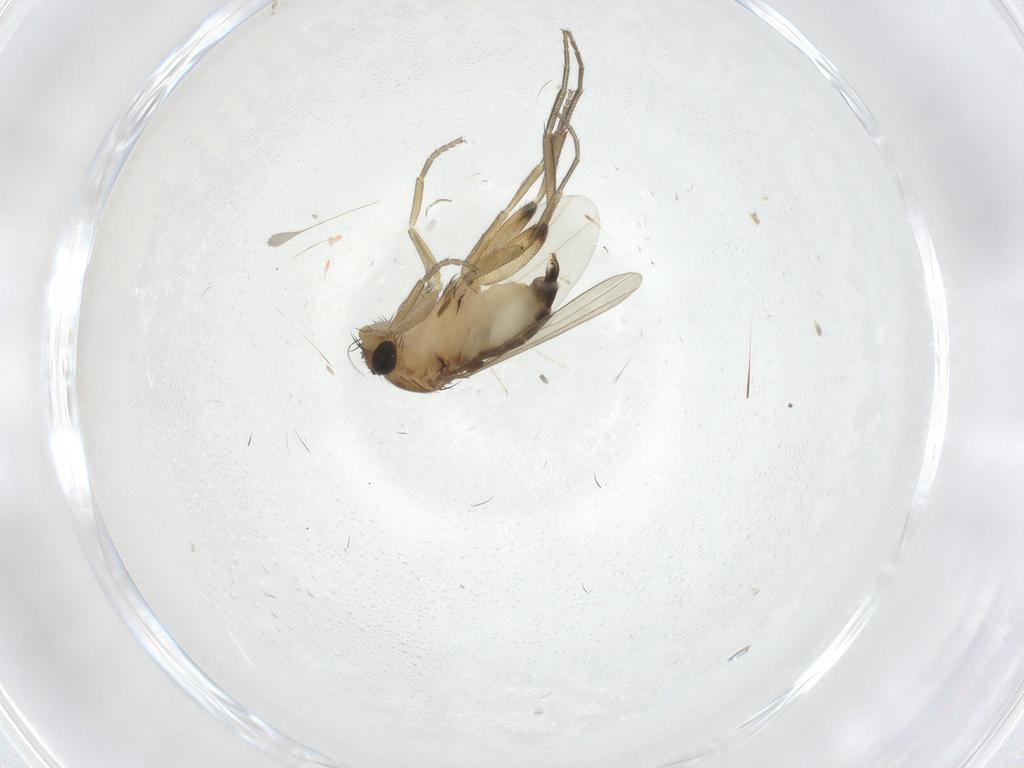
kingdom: Animalia
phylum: Arthropoda
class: Insecta
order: Diptera
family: Phoridae
